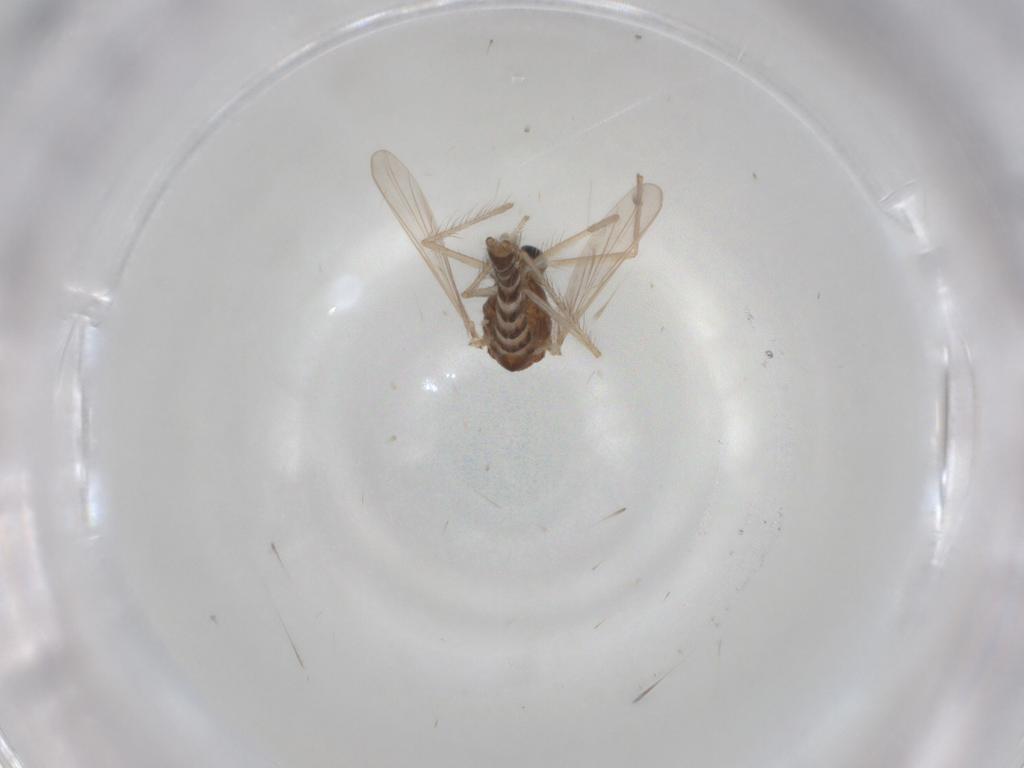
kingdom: Animalia
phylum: Arthropoda
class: Insecta
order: Diptera
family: Chironomidae
